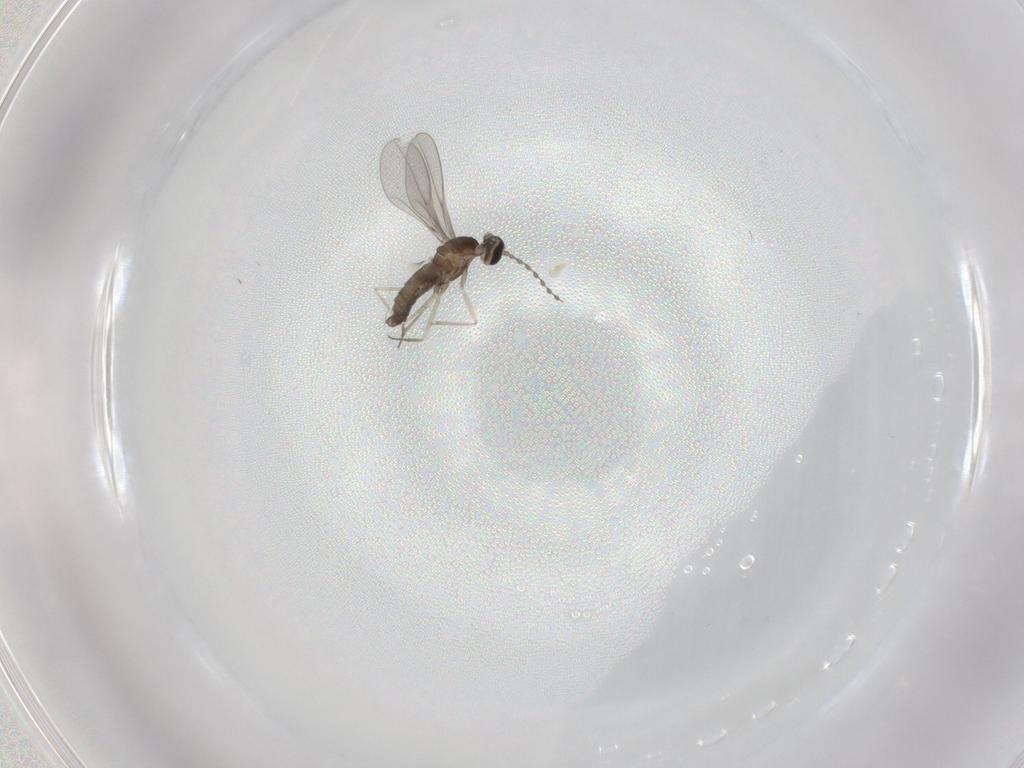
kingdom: Animalia
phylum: Arthropoda
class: Insecta
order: Diptera
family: Cecidomyiidae
